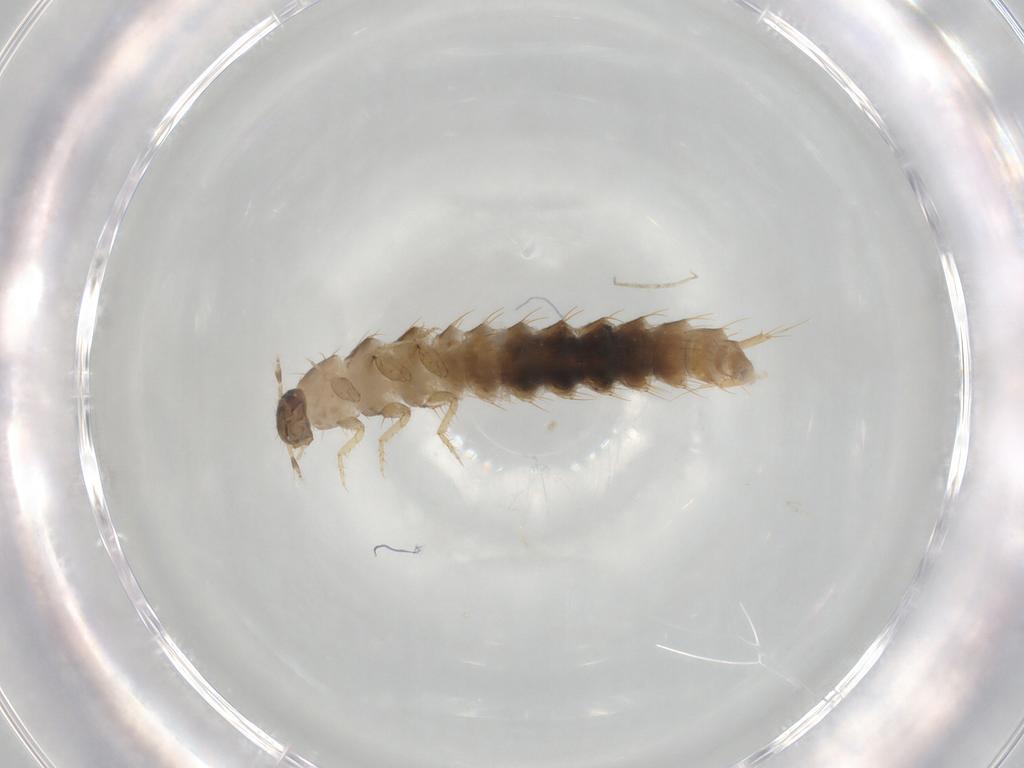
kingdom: Animalia
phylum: Arthropoda
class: Insecta
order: Coleoptera
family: Staphylinidae
